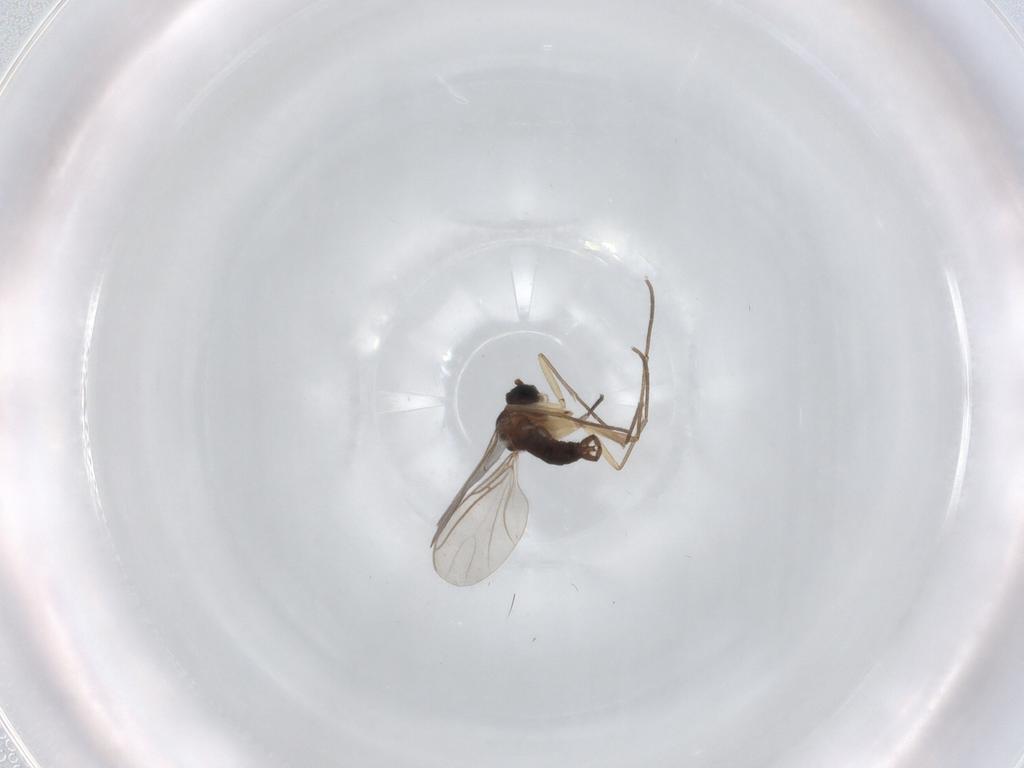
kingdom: Animalia
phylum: Arthropoda
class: Insecta
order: Diptera
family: Sciaridae
